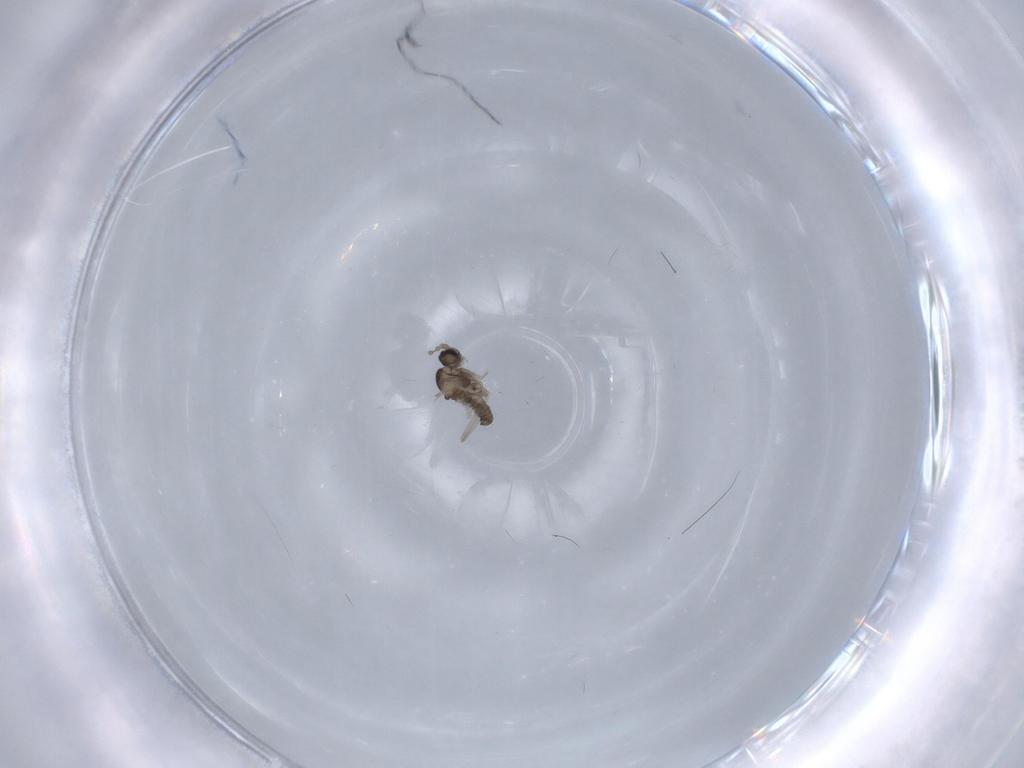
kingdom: Animalia
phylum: Arthropoda
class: Insecta
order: Diptera
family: Cecidomyiidae
